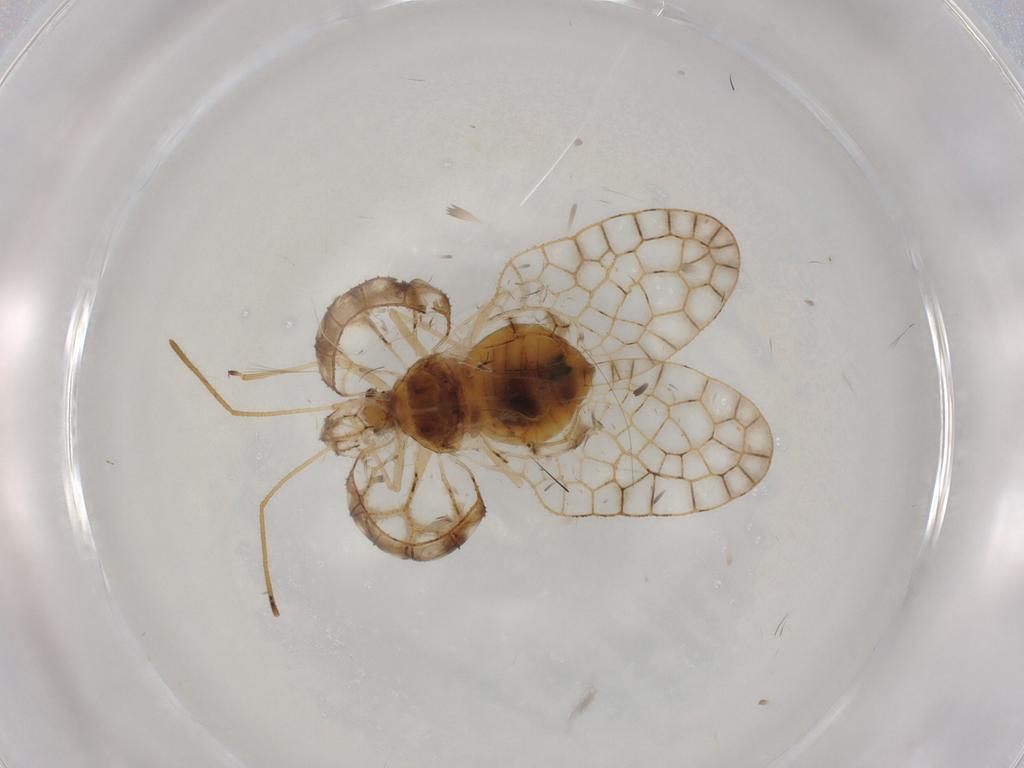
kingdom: Animalia
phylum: Arthropoda
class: Insecta
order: Hemiptera
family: Tingidae
